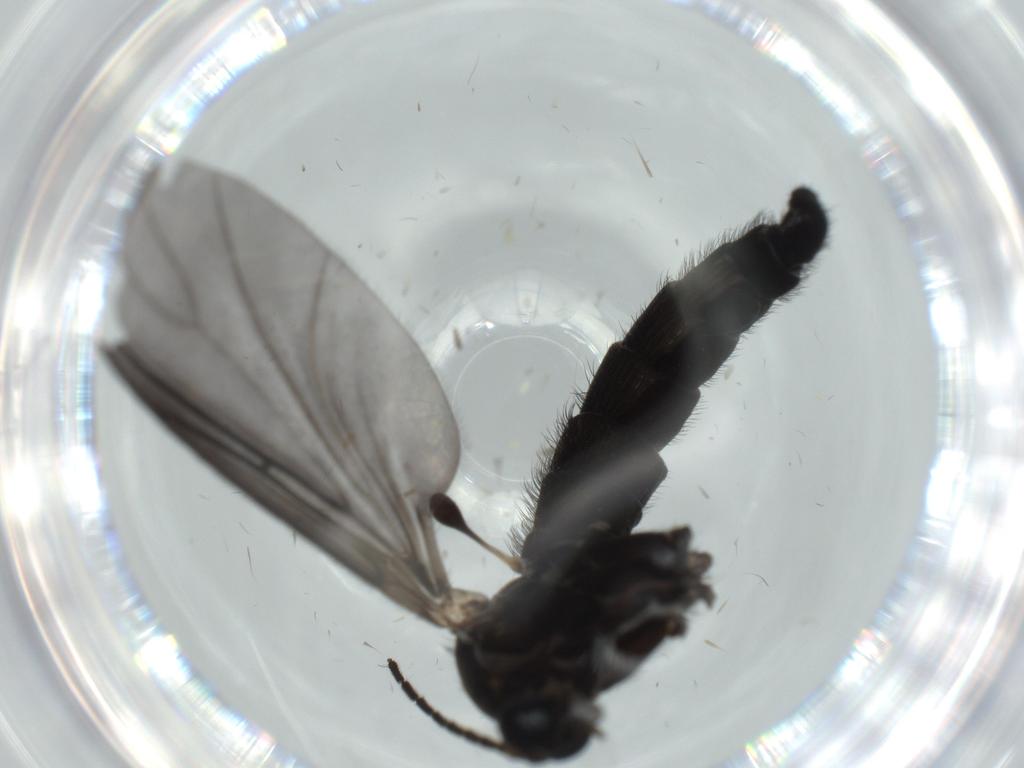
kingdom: Animalia
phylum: Arthropoda
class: Insecta
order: Diptera
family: Sciaridae
